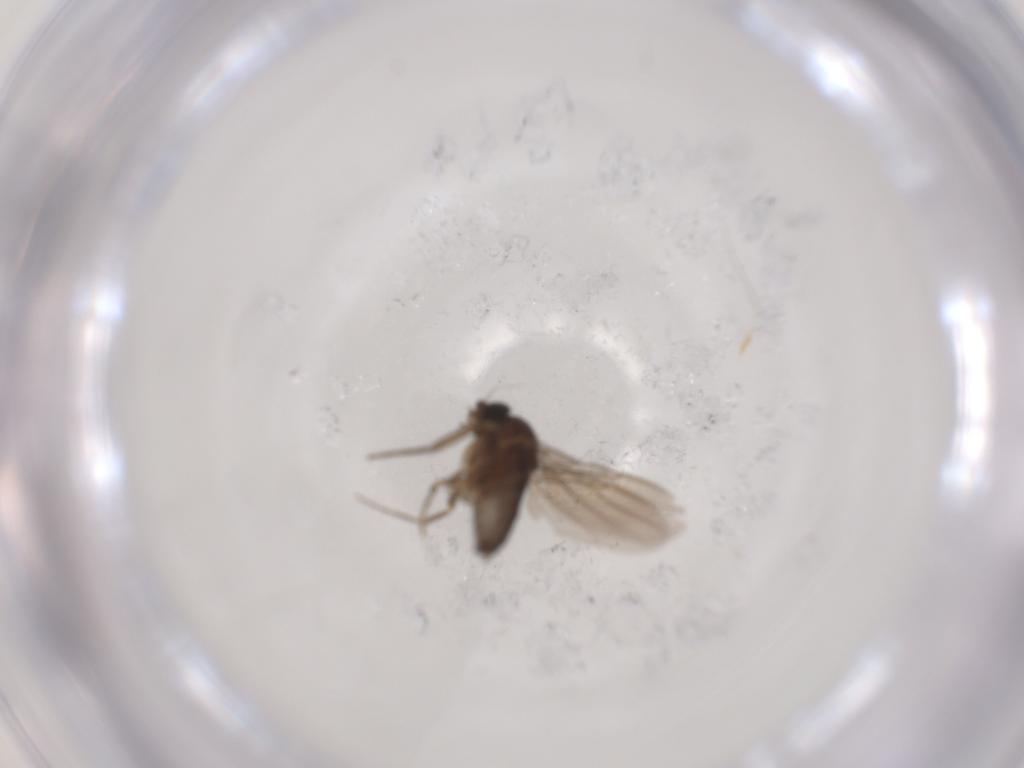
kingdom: Animalia
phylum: Arthropoda
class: Insecta
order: Diptera
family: Phoridae
